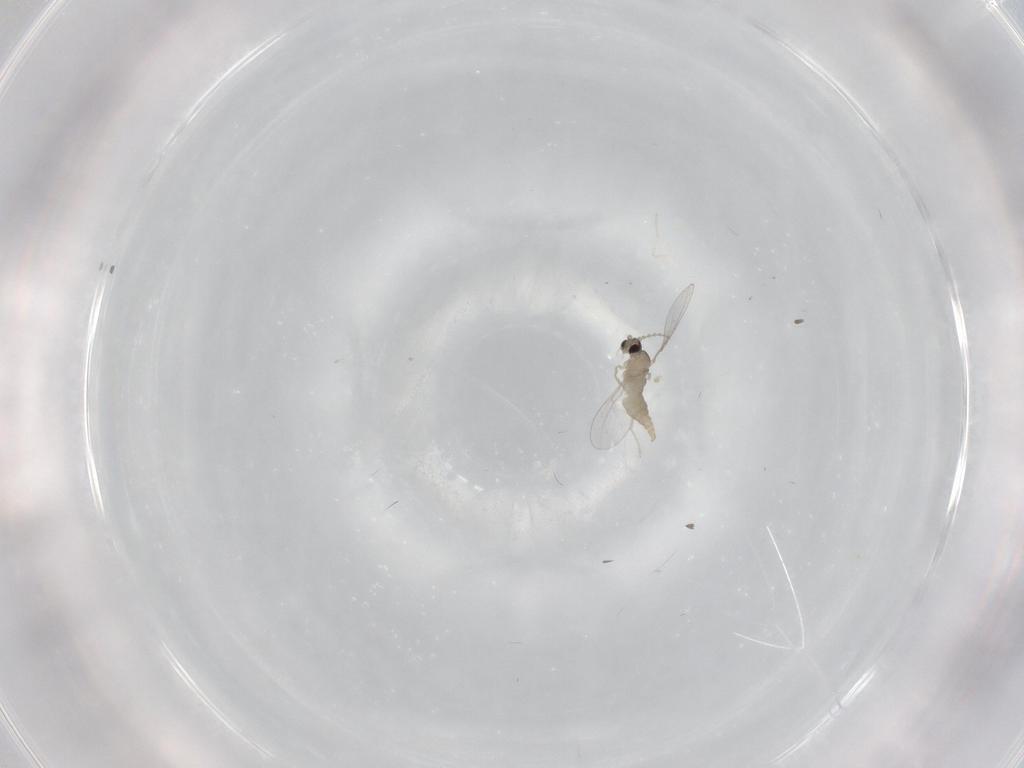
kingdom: Animalia
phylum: Arthropoda
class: Insecta
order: Diptera
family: Cecidomyiidae
